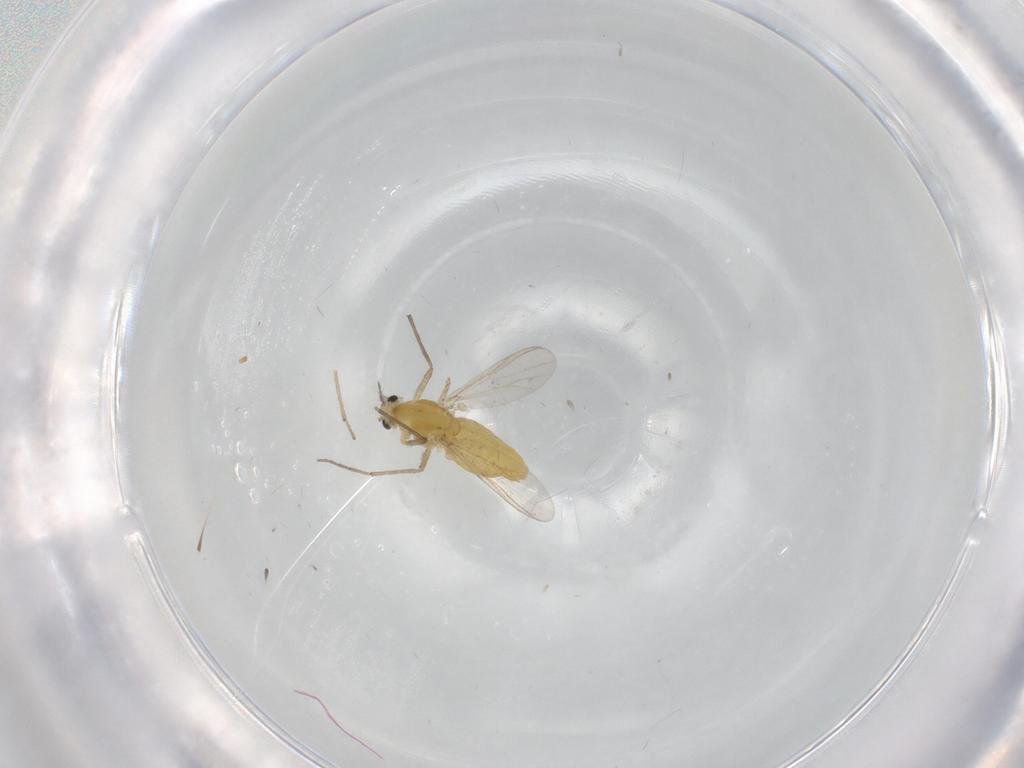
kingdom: Animalia
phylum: Arthropoda
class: Insecta
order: Diptera
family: Chironomidae
